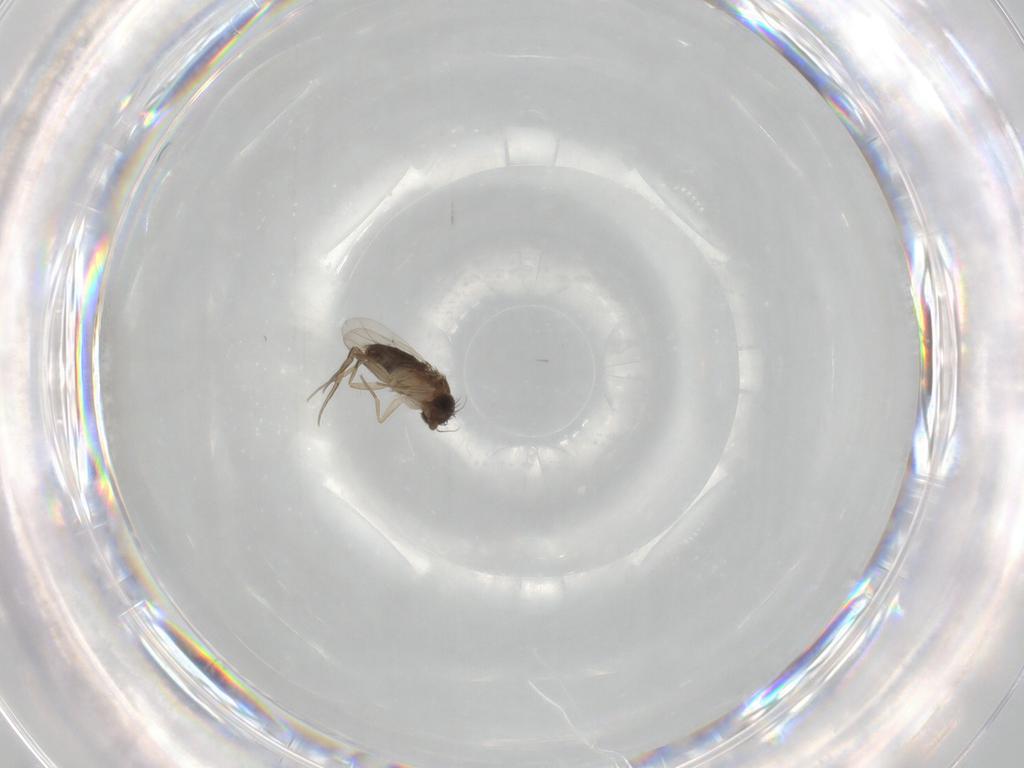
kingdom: Animalia
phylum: Arthropoda
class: Insecta
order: Diptera
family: Phoridae
